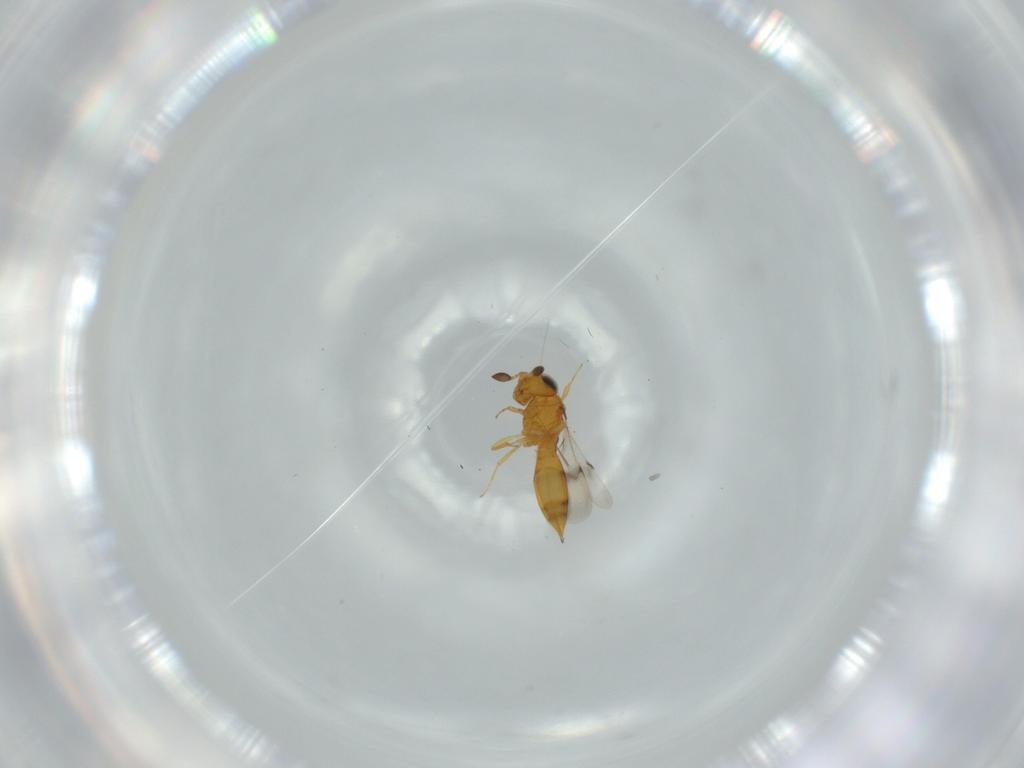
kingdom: Animalia
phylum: Arthropoda
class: Insecta
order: Hymenoptera
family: Scelionidae
